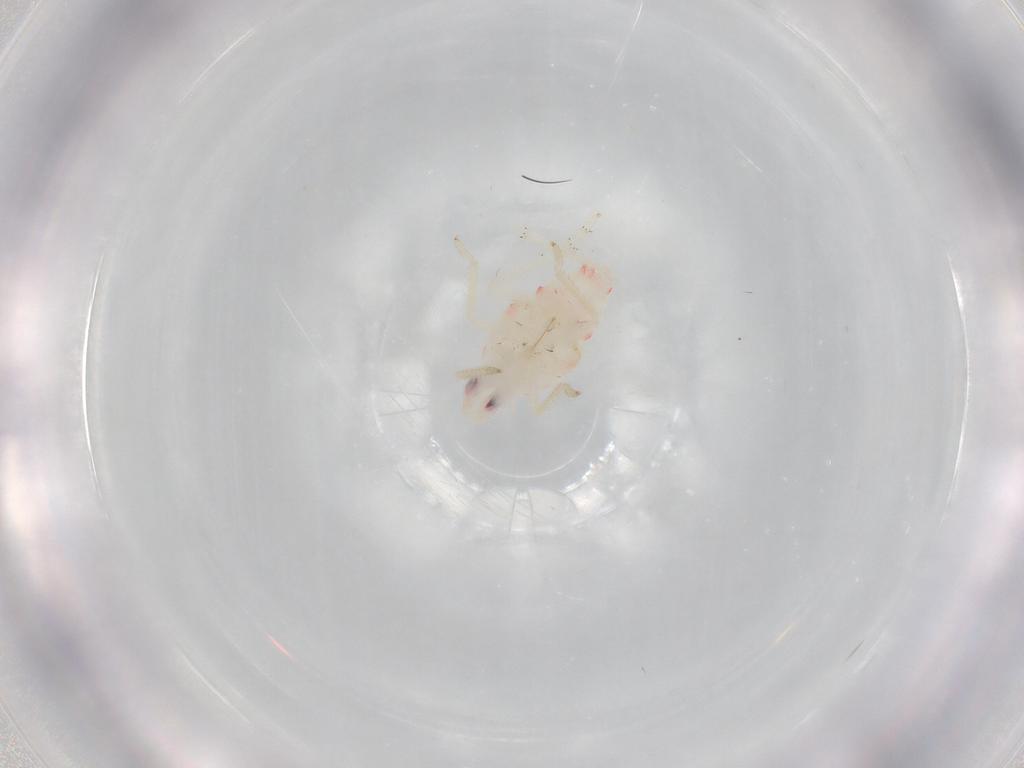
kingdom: Animalia
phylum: Arthropoda
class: Insecta
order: Hemiptera
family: Tropiduchidae
